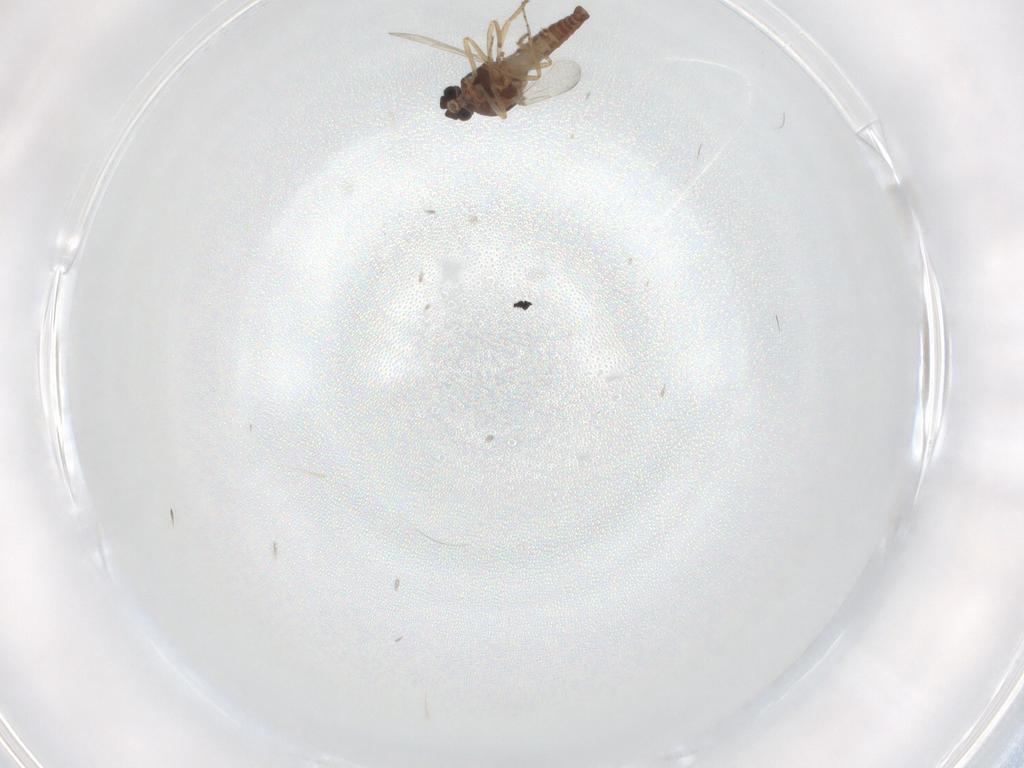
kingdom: Animalia
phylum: Arthropoda
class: Insecta
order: Diptera
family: Ceratopogonidae
